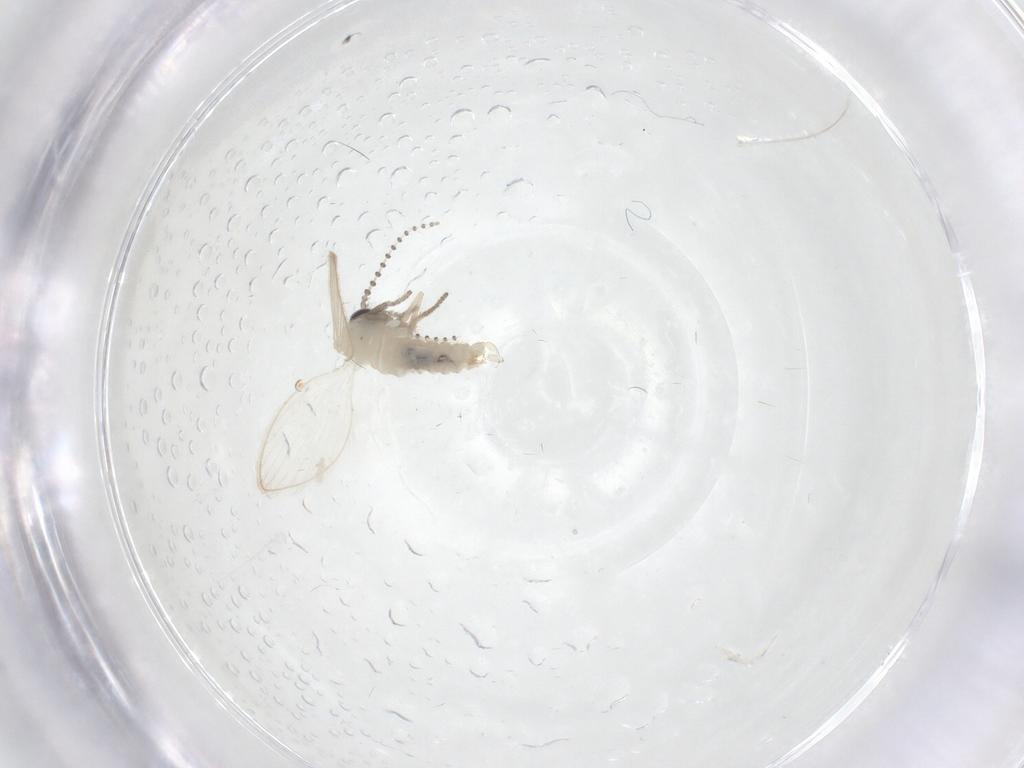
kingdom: Animalia
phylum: Arthropoda
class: Insecta
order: Diptera
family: Psychodidae
